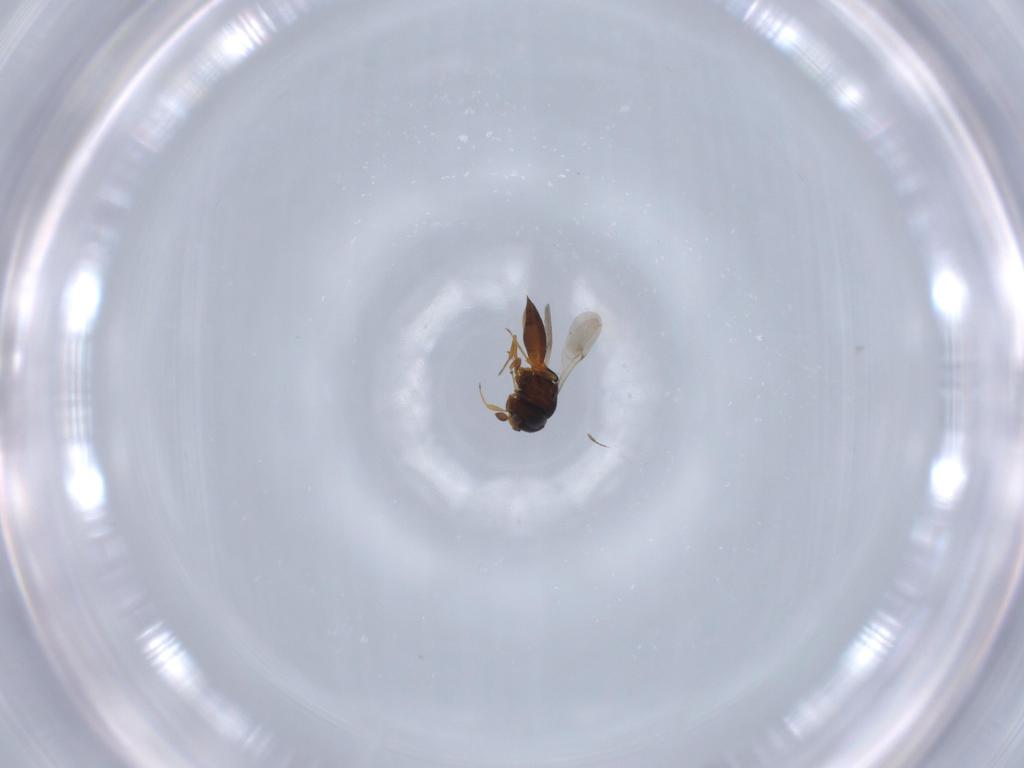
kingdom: Animalia
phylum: Arthropoda
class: Insecta
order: Hymenoptera
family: Scelionidae
